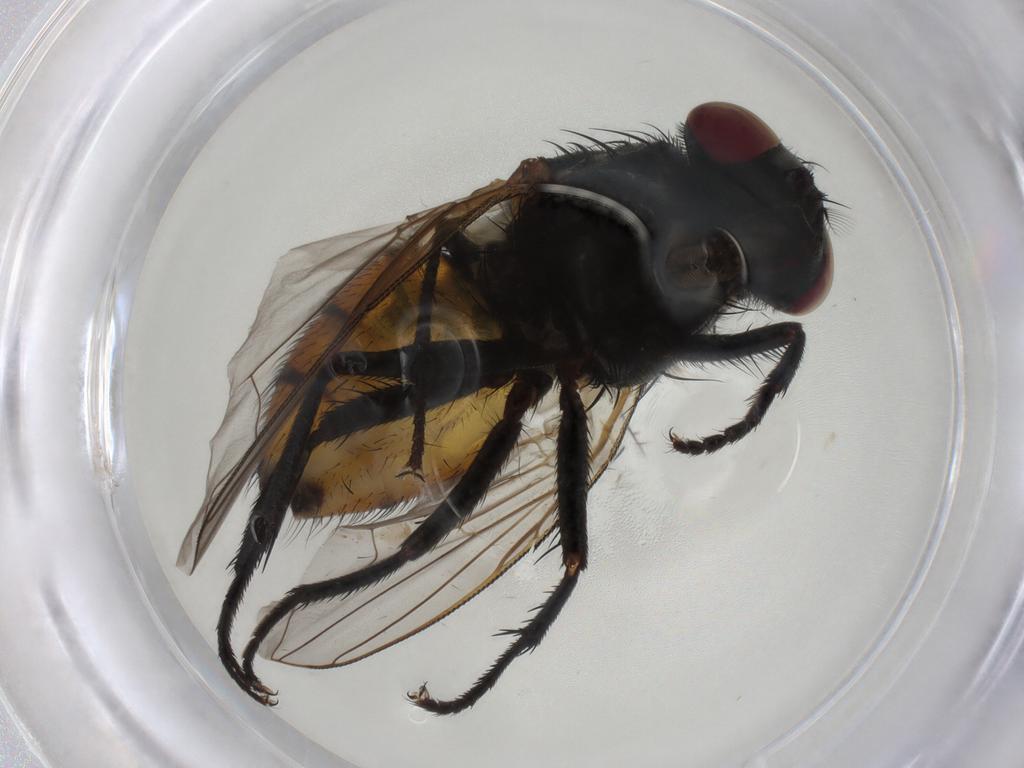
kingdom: Animalia
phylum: Arthropoda
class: Insecta
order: Diptera
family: Muscidae
